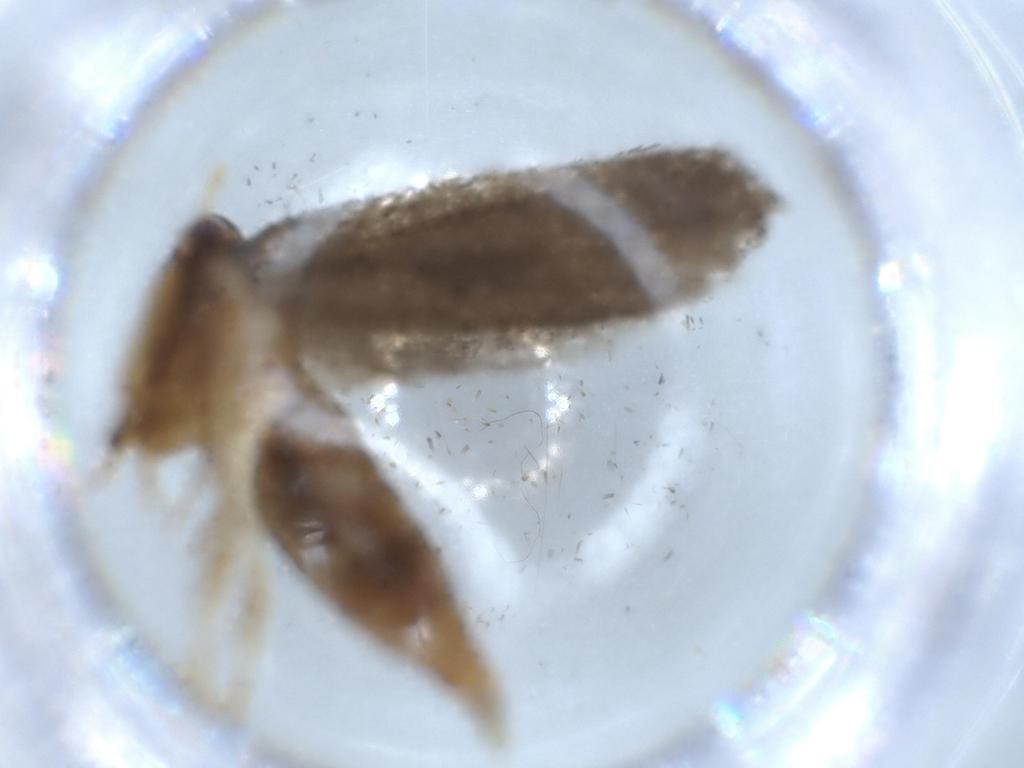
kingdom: Animalia
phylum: Arthropoda
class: Insecta
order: Lepidoptera
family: Lecithoceridae
